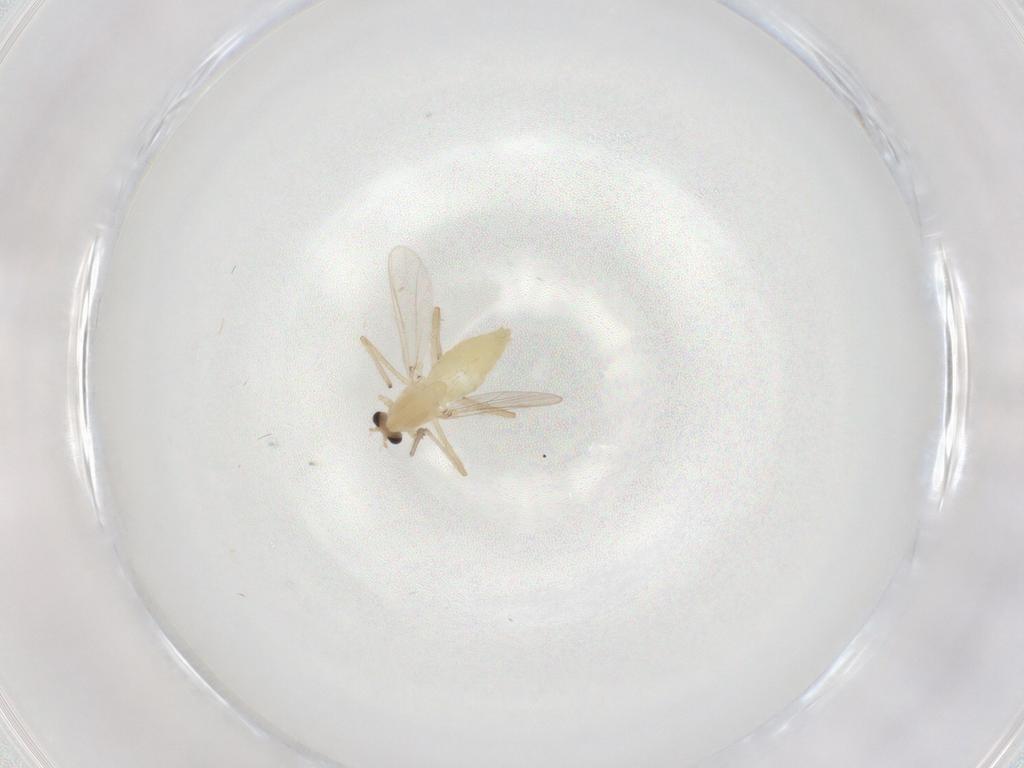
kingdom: Animalia
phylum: Arthropoda
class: Insecta
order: Diptera
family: Chironomidae
